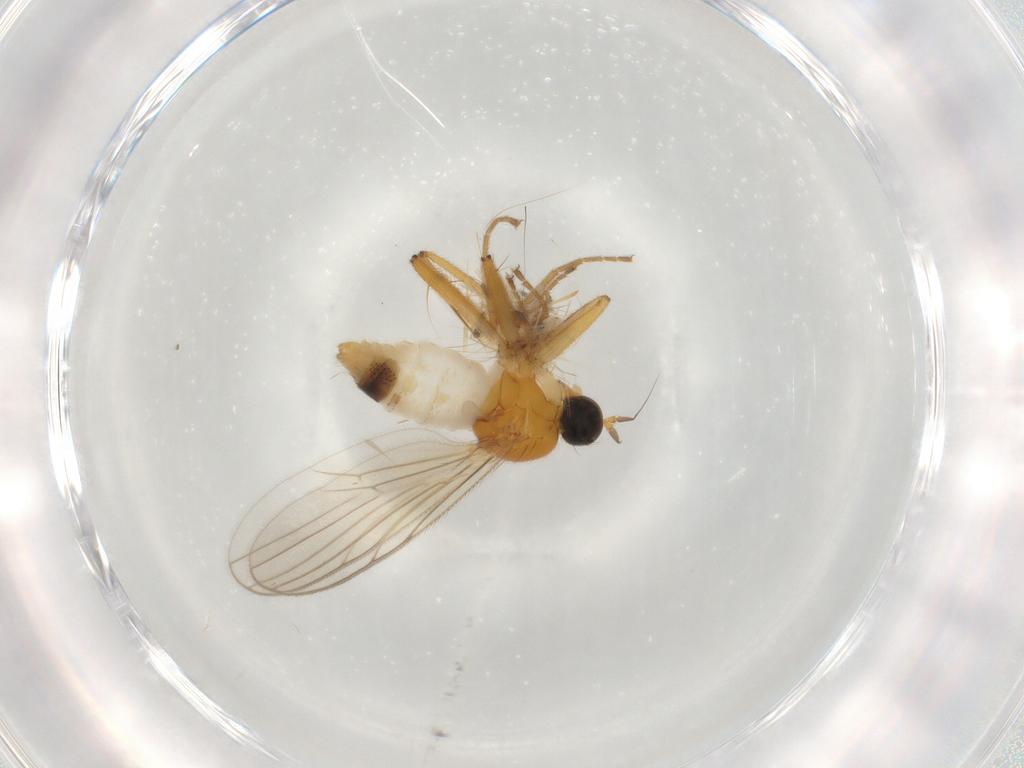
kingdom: Animalia
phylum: Arthropoda
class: Insecta
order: Diptera
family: Hybotidae
